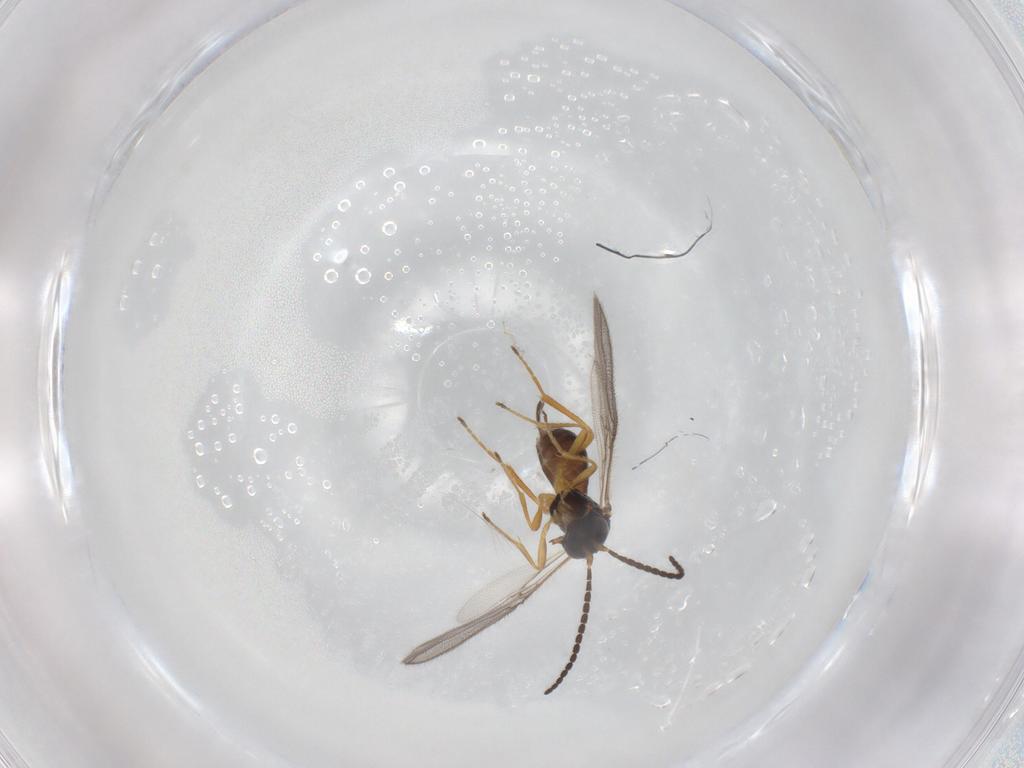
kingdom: Animalia
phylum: Arthropoda
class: Insecta
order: Hymenoptera
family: Braconidae
